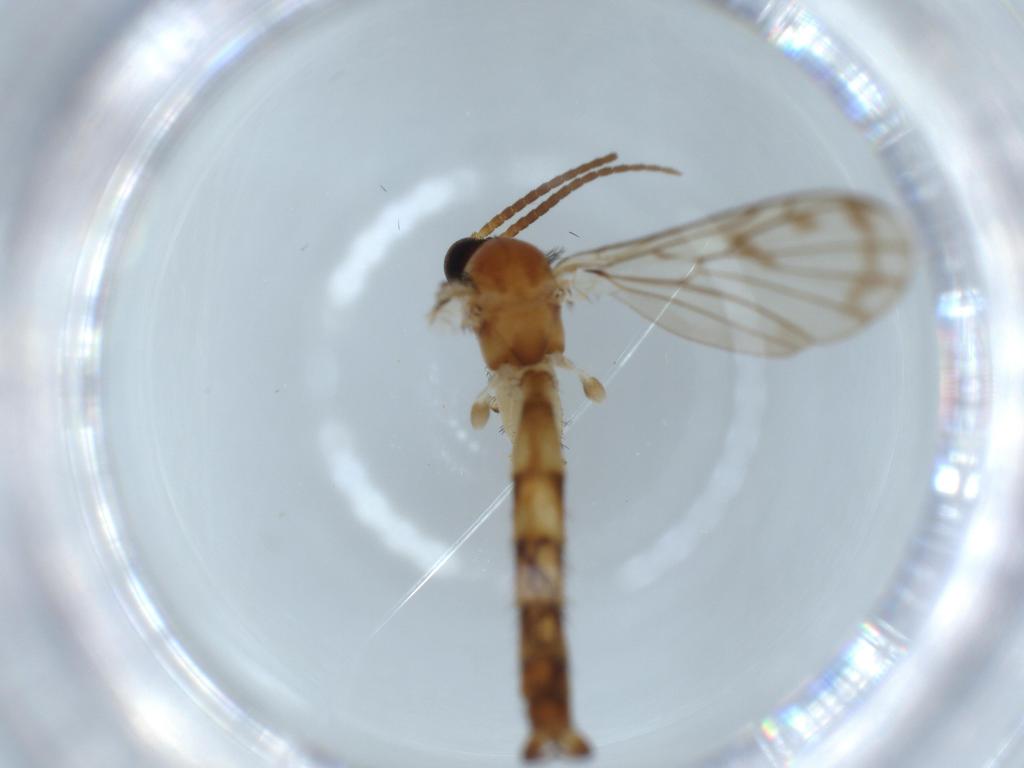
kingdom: Animalia
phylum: Arthropoda
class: Insecta
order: Diptera
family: Chironomidae
